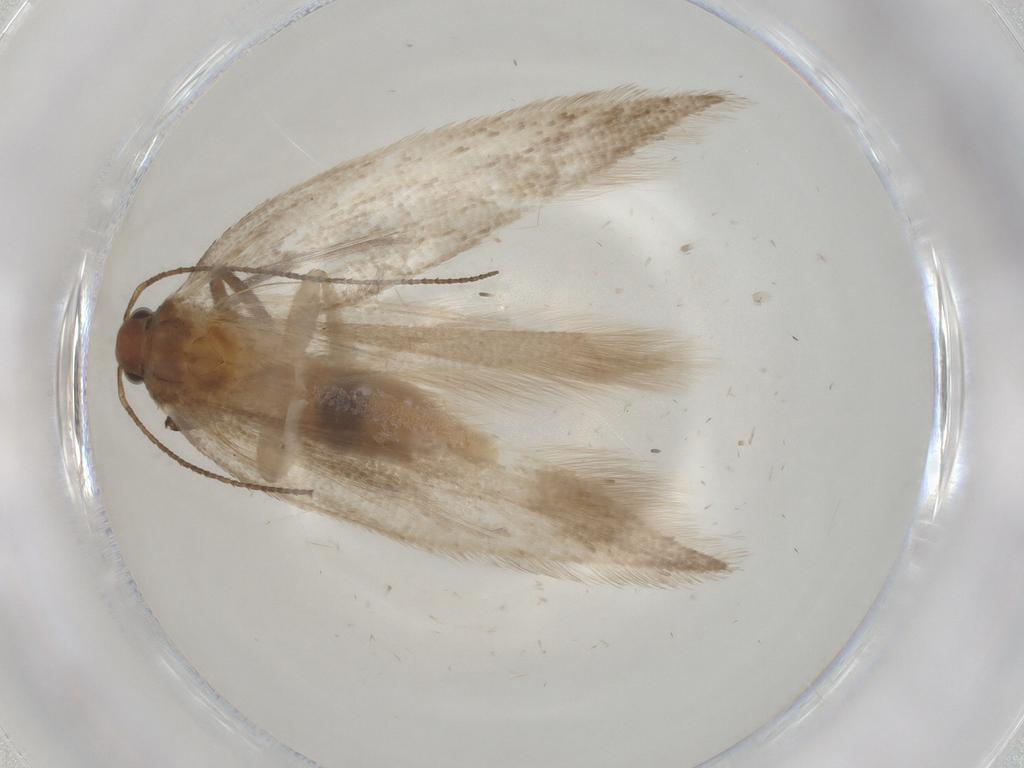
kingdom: Animalia
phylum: Arthropoda
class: Insecta
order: Lepidoptera
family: Gelechiidae
